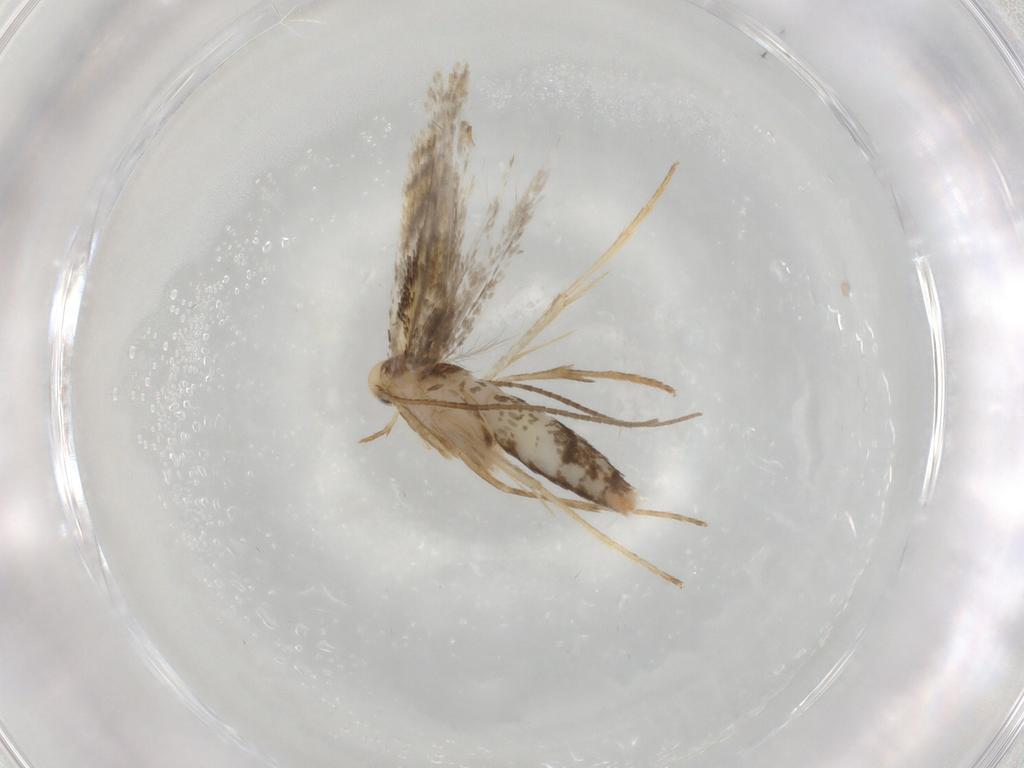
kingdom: Animalia
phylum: Arthropoda
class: Insecta
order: Lepidoptera
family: Gracillariidae
